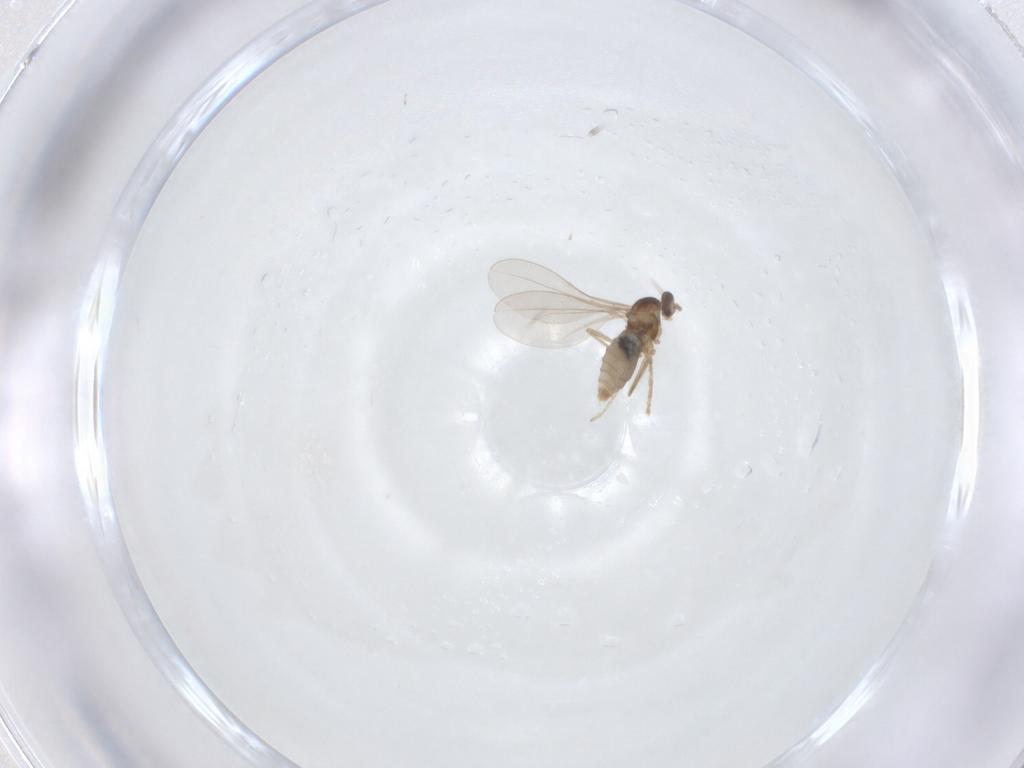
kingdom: Animalia
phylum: Arthropoda
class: Insecta
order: Diptera
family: Cecidomyiidae
